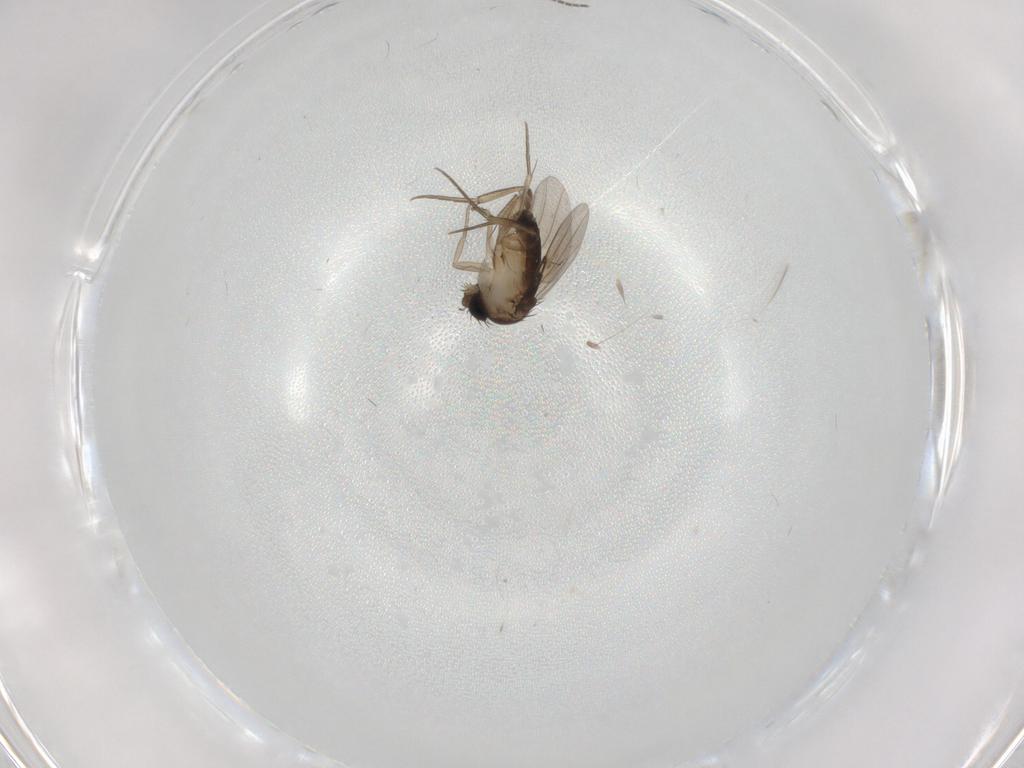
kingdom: Animalia
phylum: Arthropoda
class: Insecta
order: Diptera
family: Phoridae
